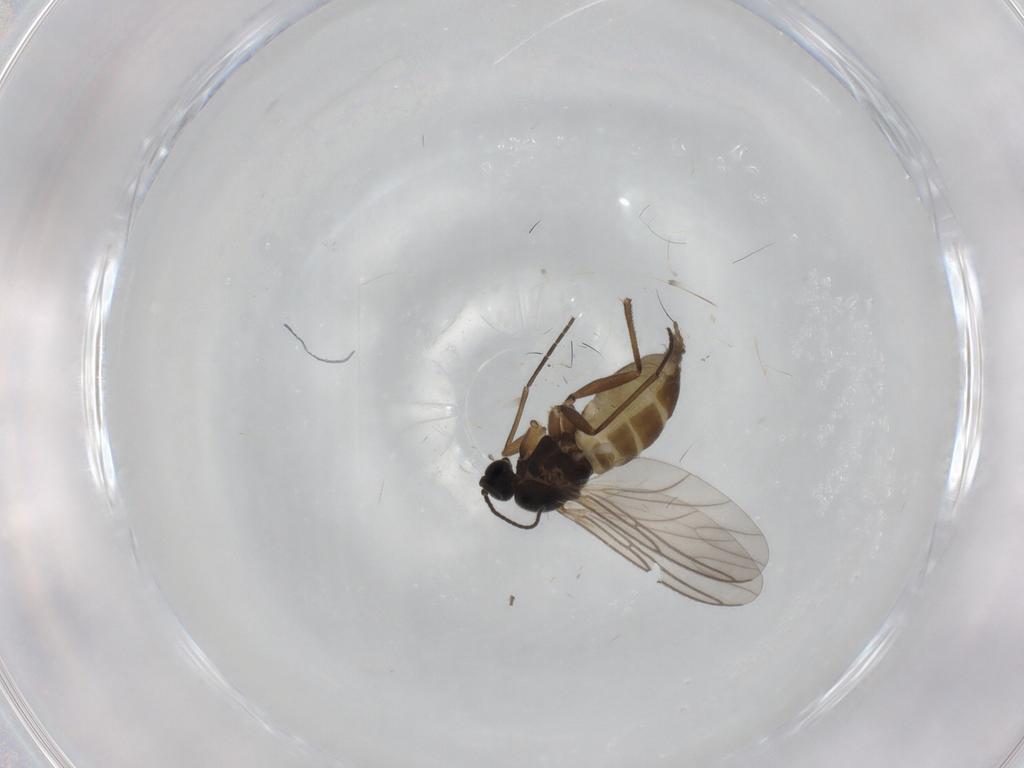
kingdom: Animalia
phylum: Arthropoda
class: Insecta
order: Diptera
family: Sciaridae
